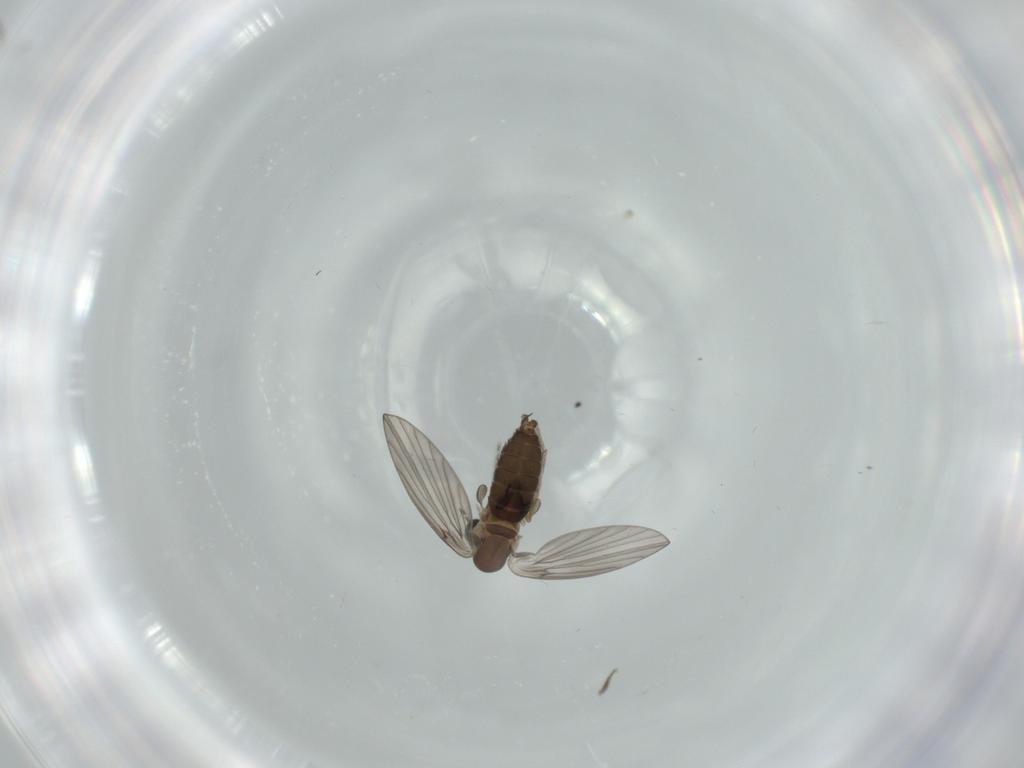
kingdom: Animalia
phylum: Arthropoda
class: Insecta
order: Diptera
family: Psychodidae
